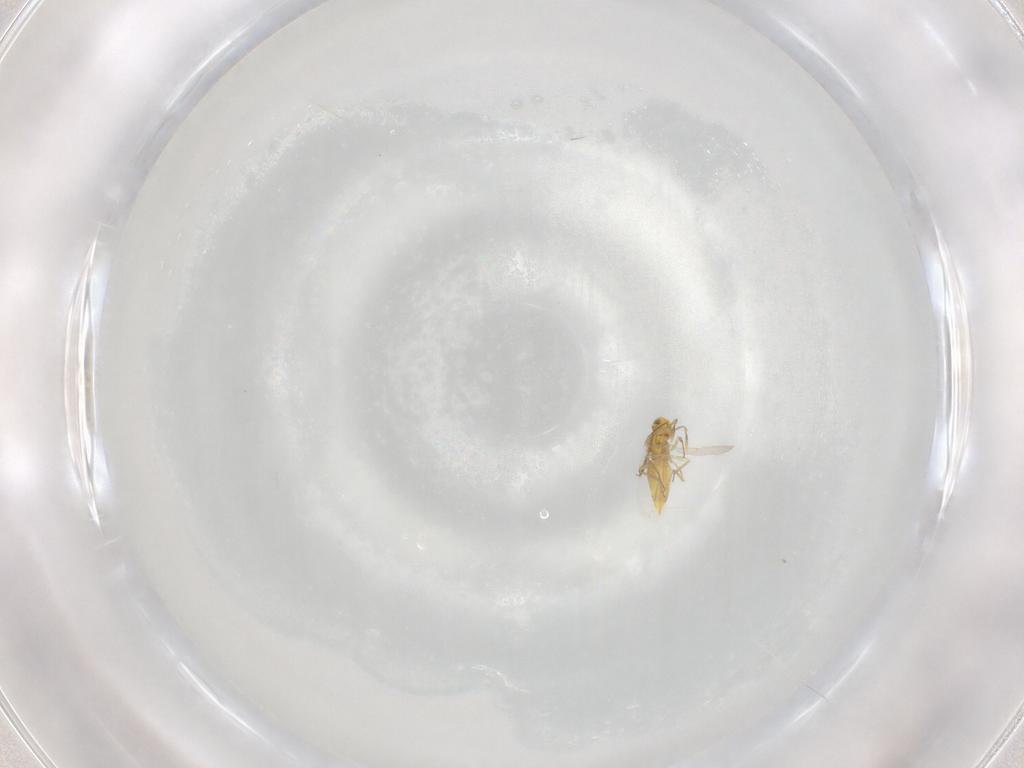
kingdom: Animalia
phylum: Arthropoda
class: Insecta
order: Hymenoptera
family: Aphelinidae
